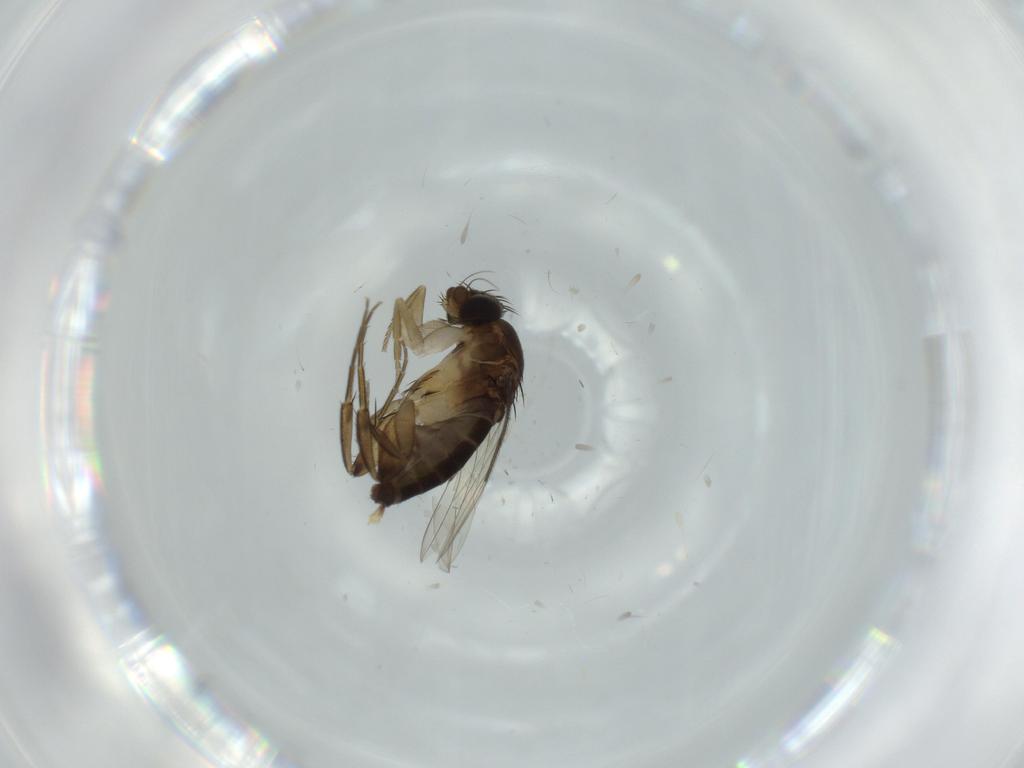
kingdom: Animalia
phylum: Arthropoda
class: Insecta
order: Diptera
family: Phoridae
